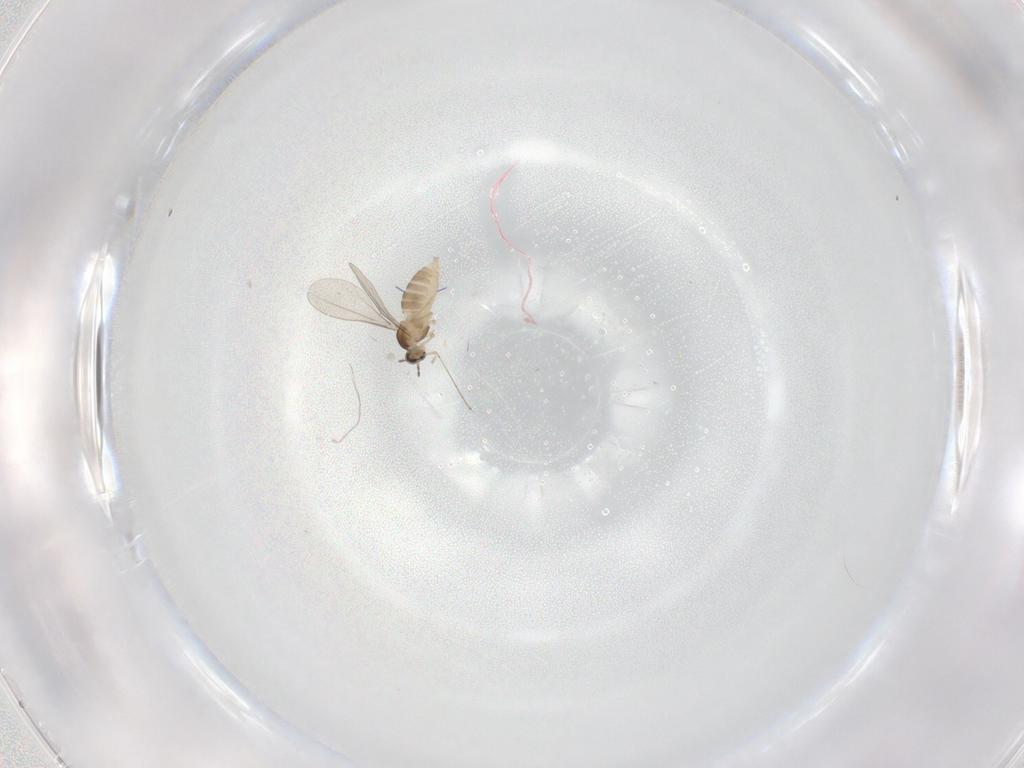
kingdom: Animalia
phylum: Arthropoda
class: Insecta
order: Diptera
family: Cecidomyiidae
